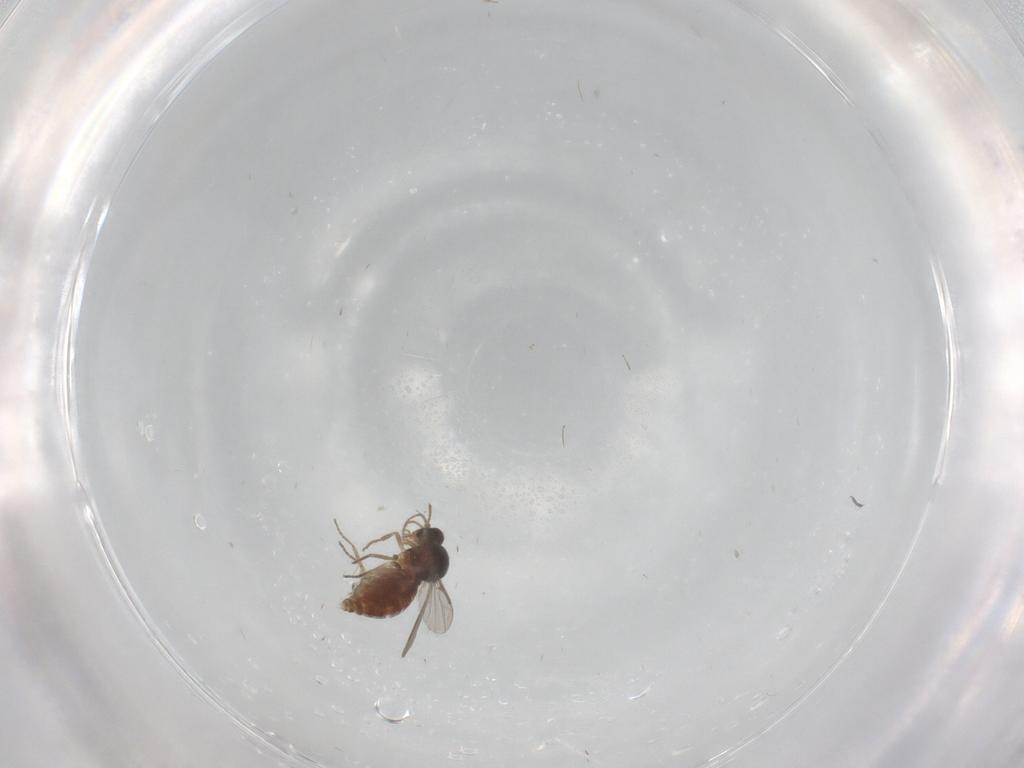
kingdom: Animalia
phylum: Arthropoda
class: Insecta
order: Diptera
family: Ceratopogonidae
